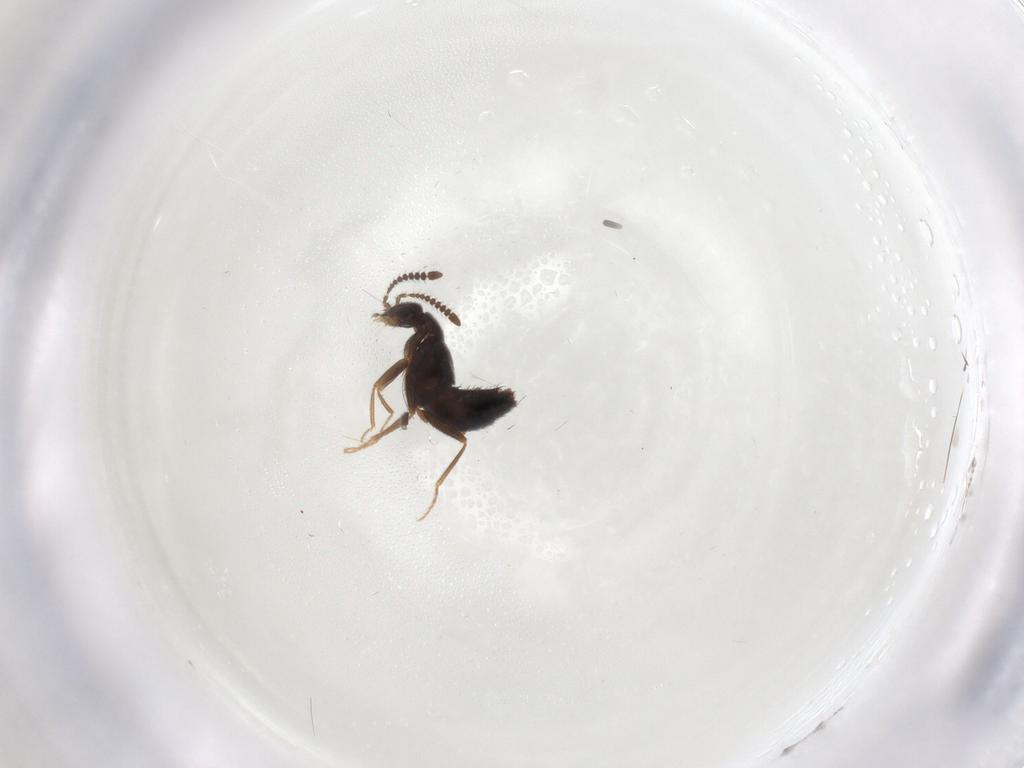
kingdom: Animalia
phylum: Arthropoda
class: Insecta
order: Coleoptera
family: Staphylinidae
